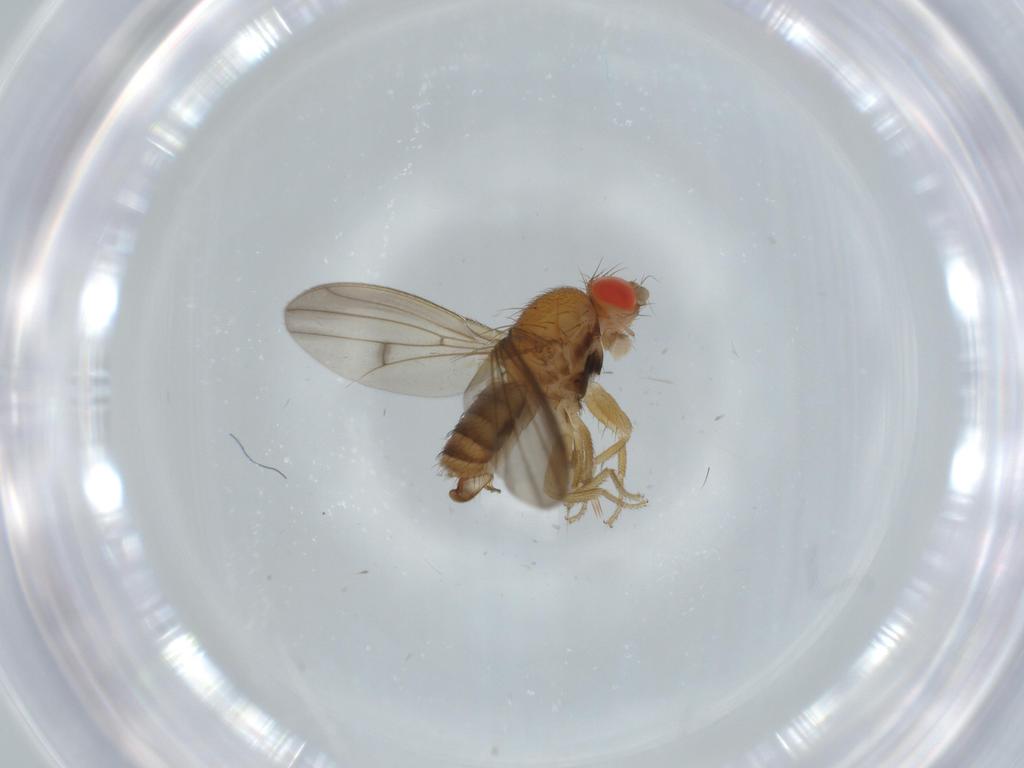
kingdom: Animalia
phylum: Arthropoda
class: Insecta
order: Diptera
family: Drosophilidae
